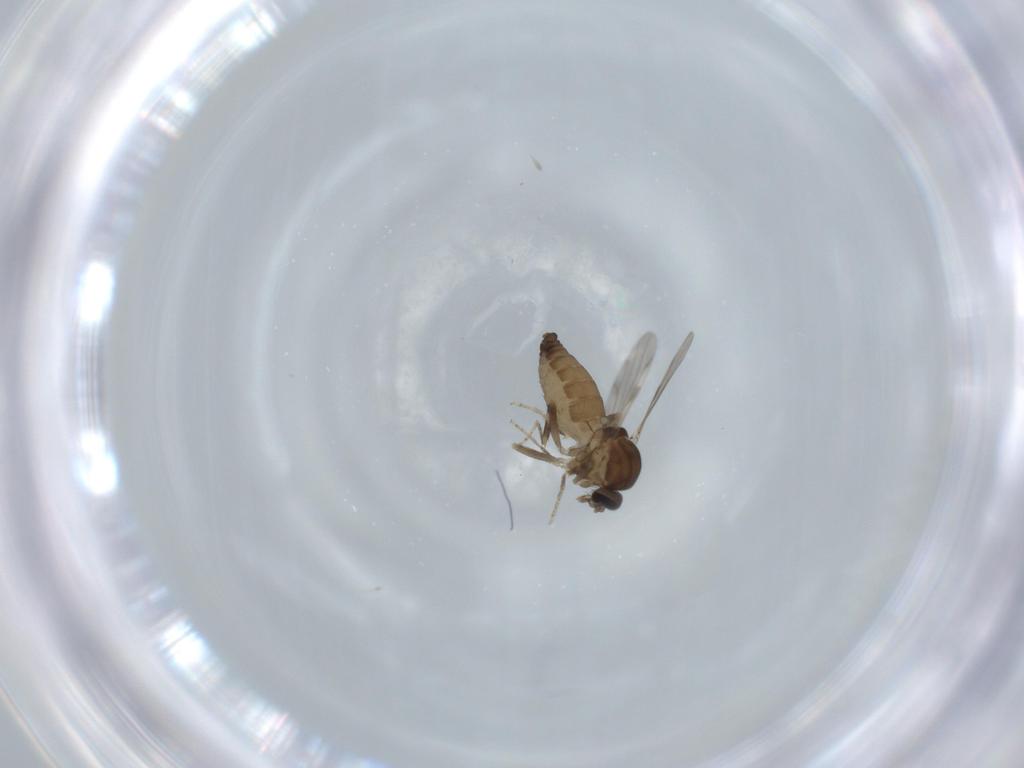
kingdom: Animalia
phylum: Arthropoda
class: Insecta
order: Diptera
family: Ceratopogonidae
